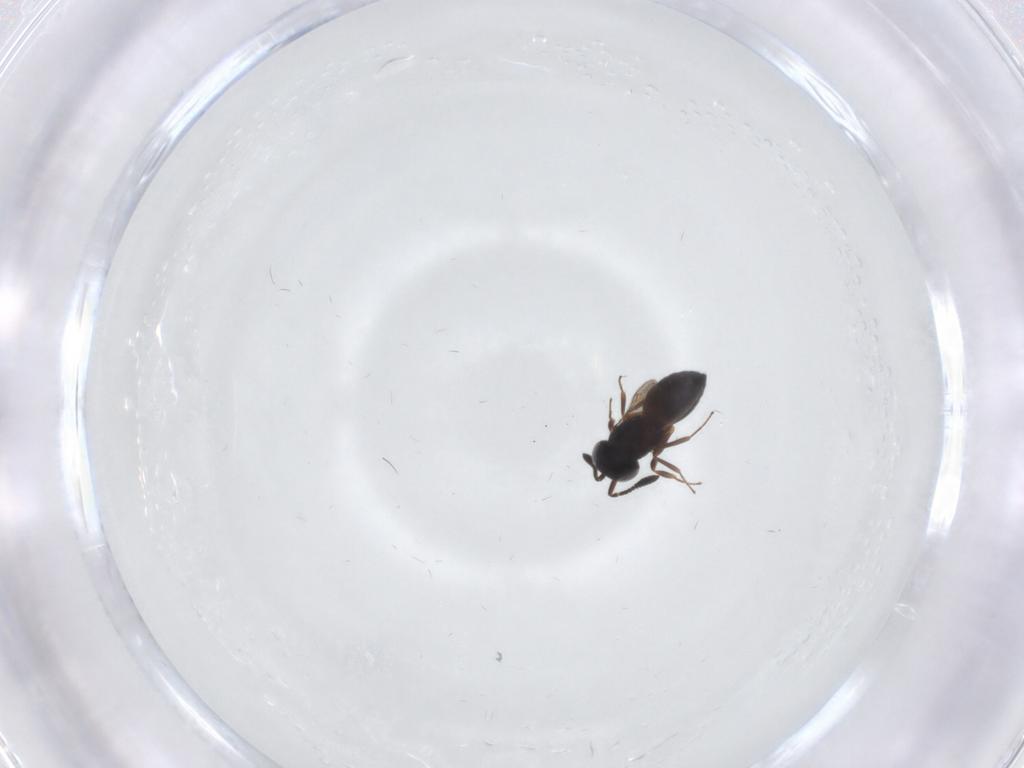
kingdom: Animalia
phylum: Arthropoda
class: Insecta
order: Hymenoptera
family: Scelionidae
